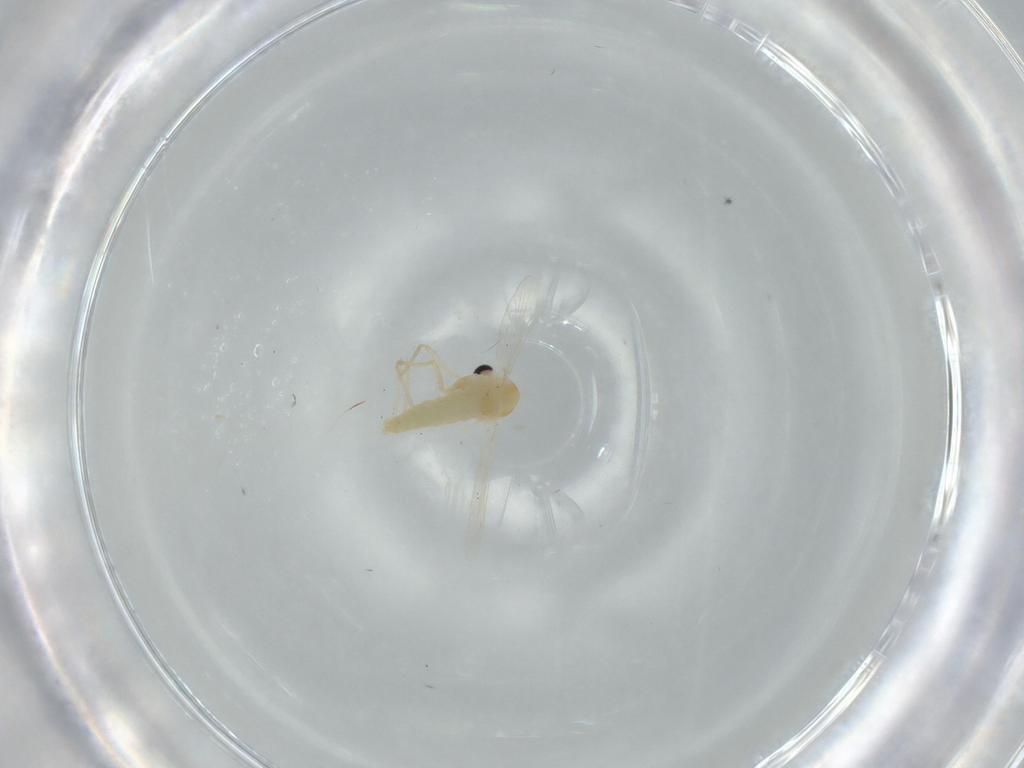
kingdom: Animalia
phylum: Arthropoda
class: Insecta
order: Diptera
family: Chironomidae
